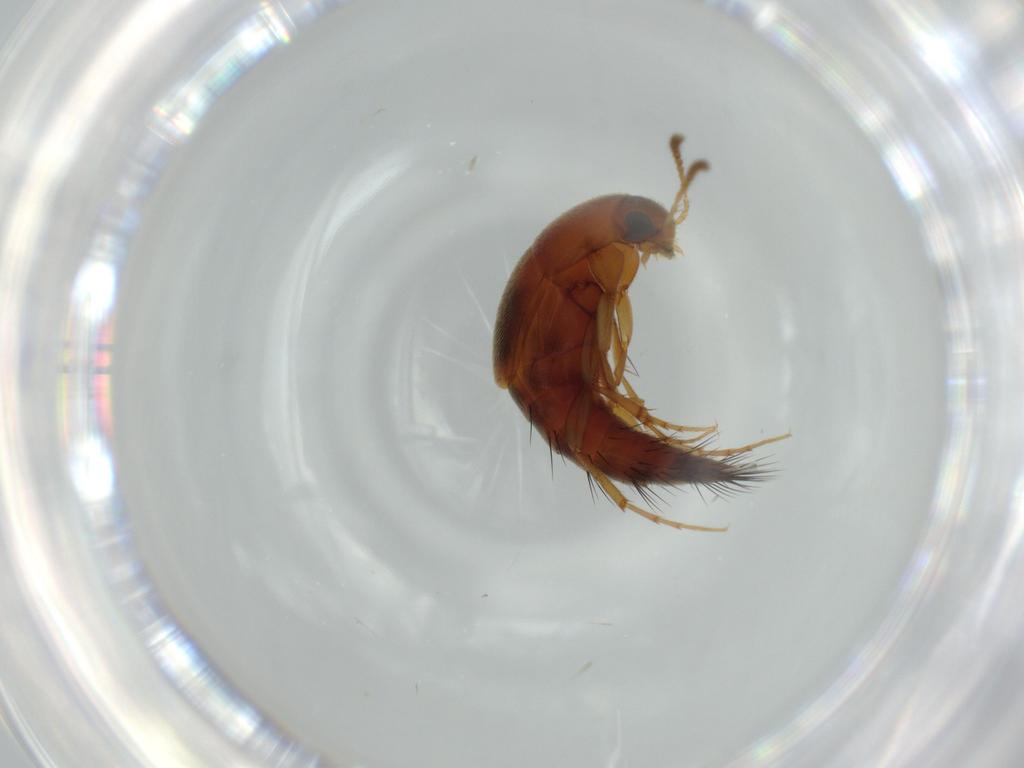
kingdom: Animalia
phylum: Arthropoda
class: Insecta
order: Coleoptera
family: Staphylinidae
